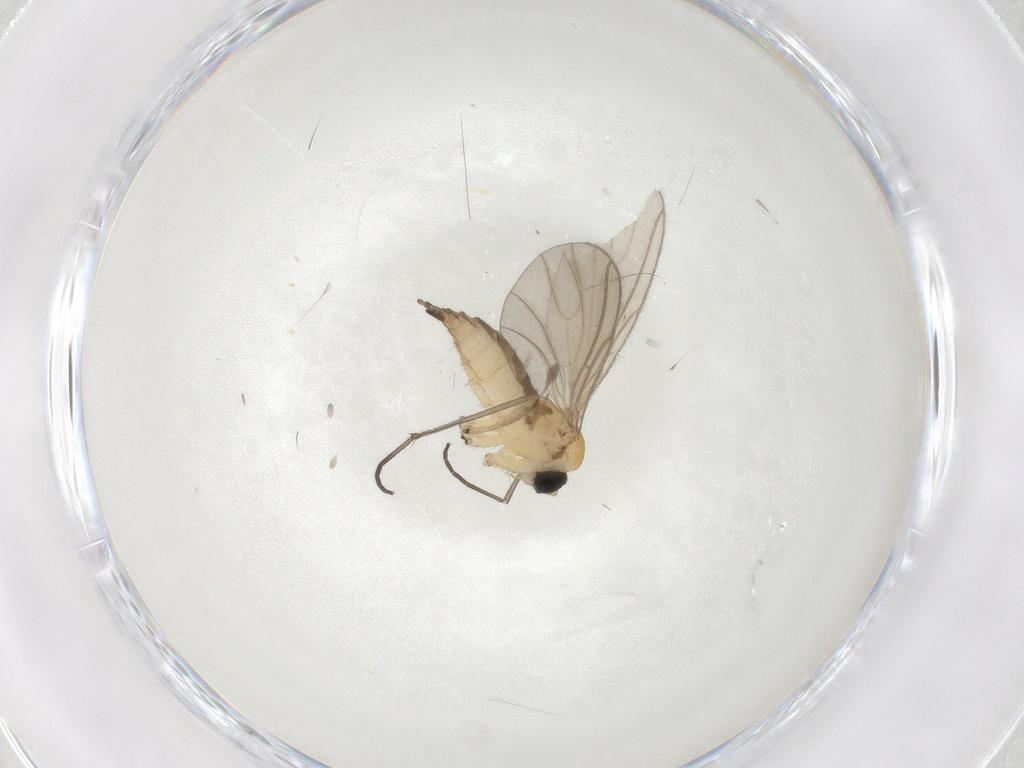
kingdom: Animalia
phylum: Arthropoda
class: Insecta
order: Diptera
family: Sciaridae
